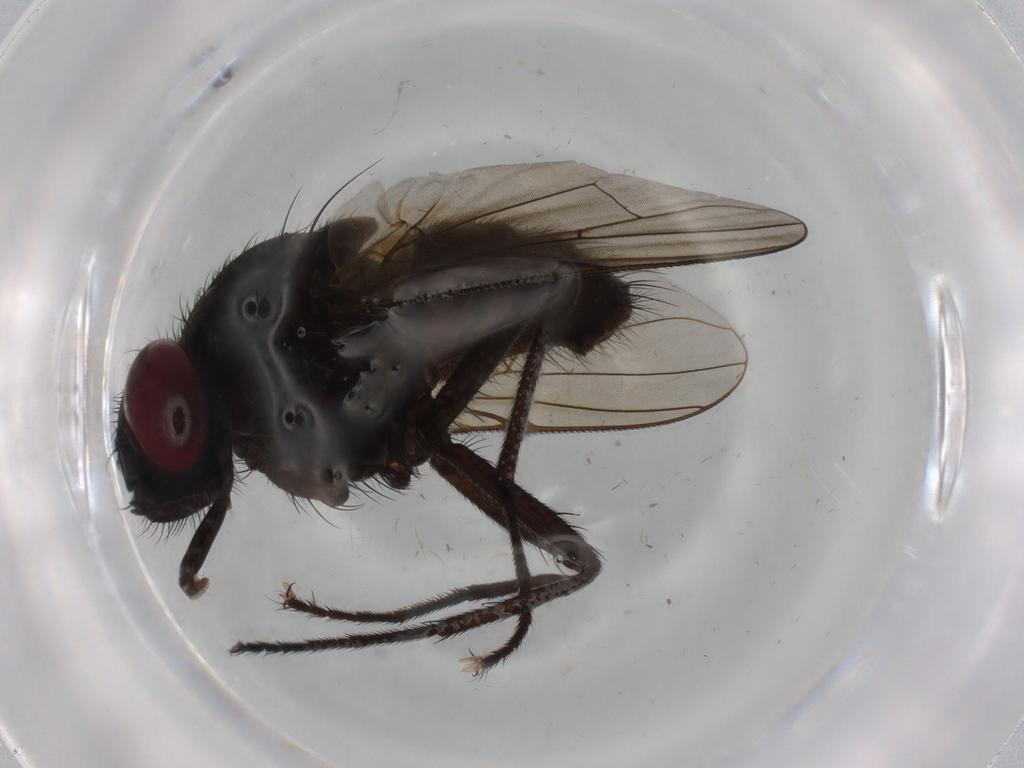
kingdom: Animalia
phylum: Arthropoda
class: Insecta
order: Diptera
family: Muscidae
